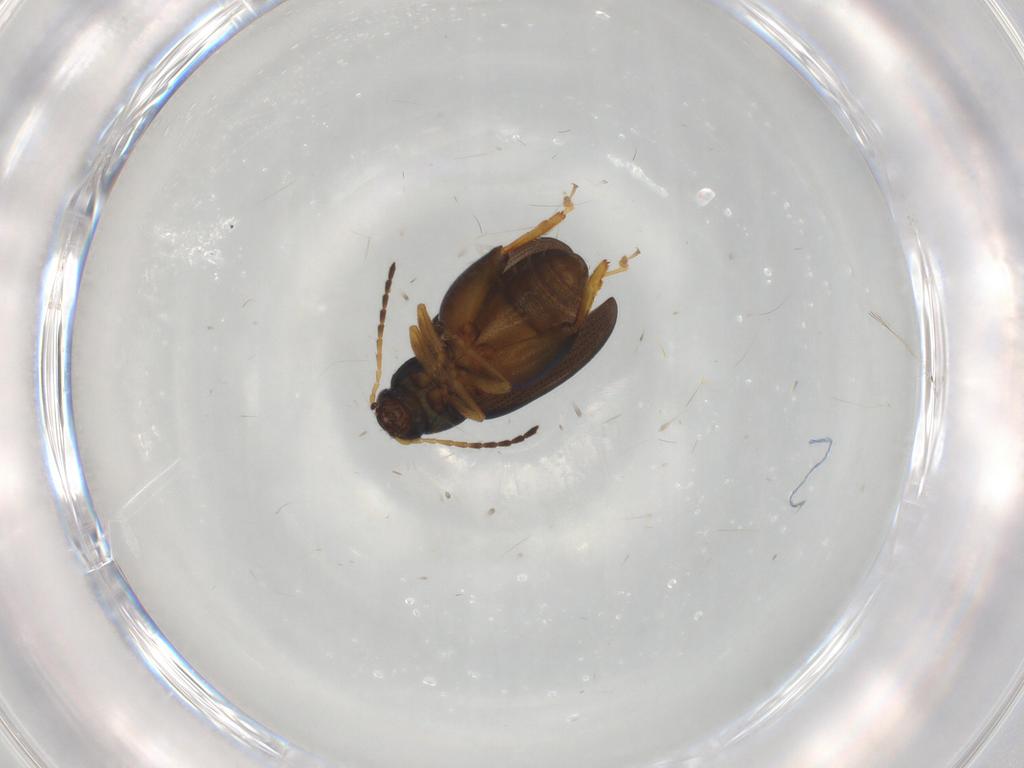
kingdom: Animalia
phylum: Arthropoda
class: Insecta
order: Coleoptera
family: Chrysomelidae
